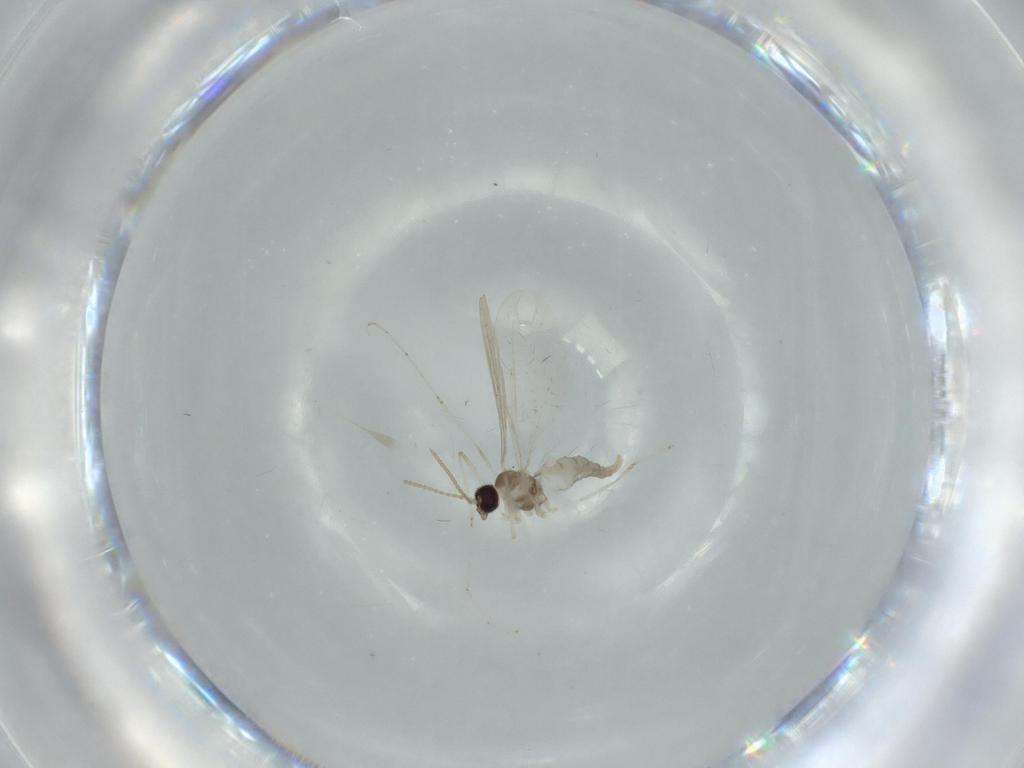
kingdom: Animalia
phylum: Arthropoda
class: Insecta
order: Diptera
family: Cecidomyiidae
